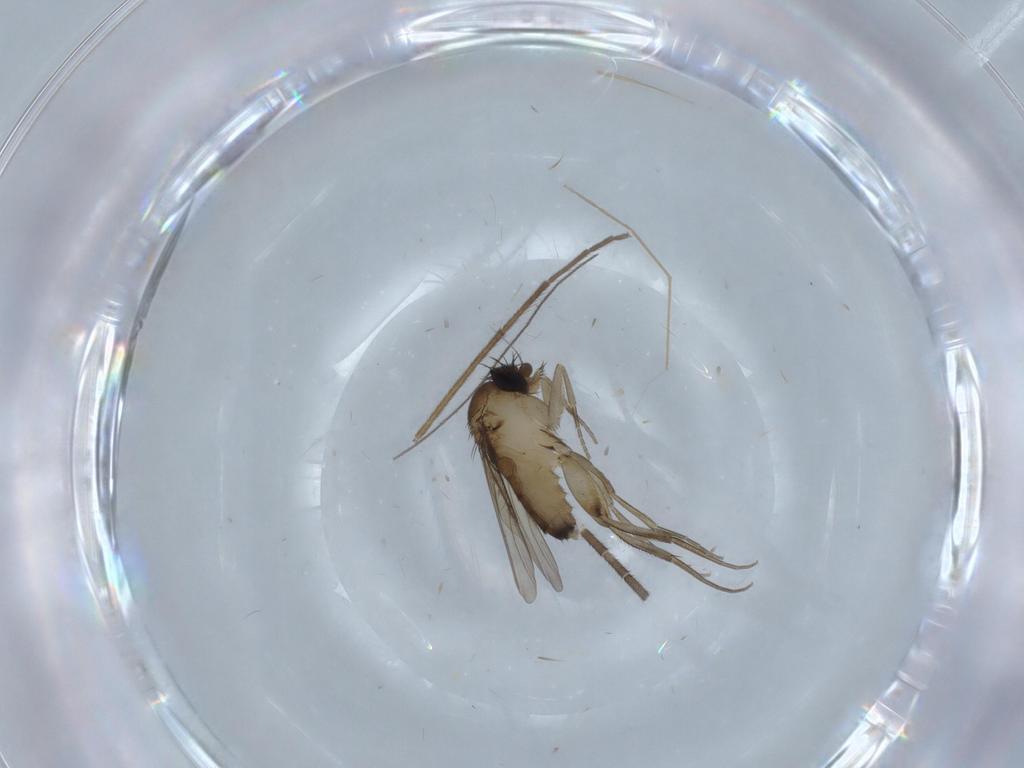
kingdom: Animalia
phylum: Arthropoda
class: Insecta
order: Diptera
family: Phoridae
